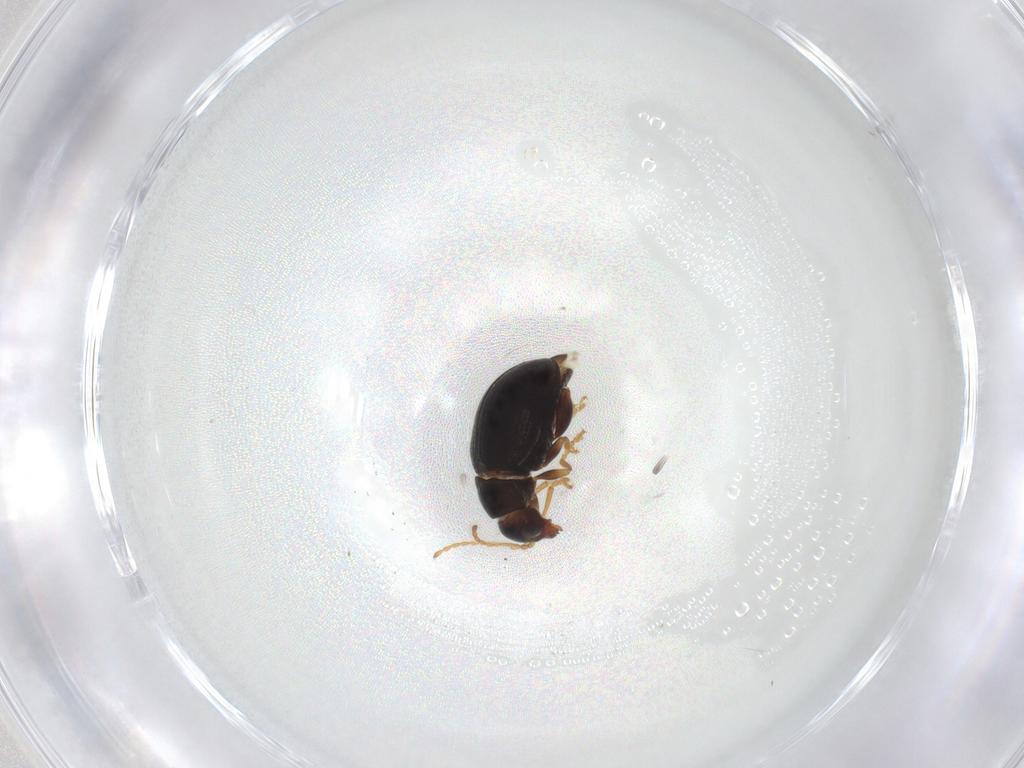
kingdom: Animalia
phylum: Arthropoda
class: Insecta
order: Coleoptera
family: Chrysomelidae
